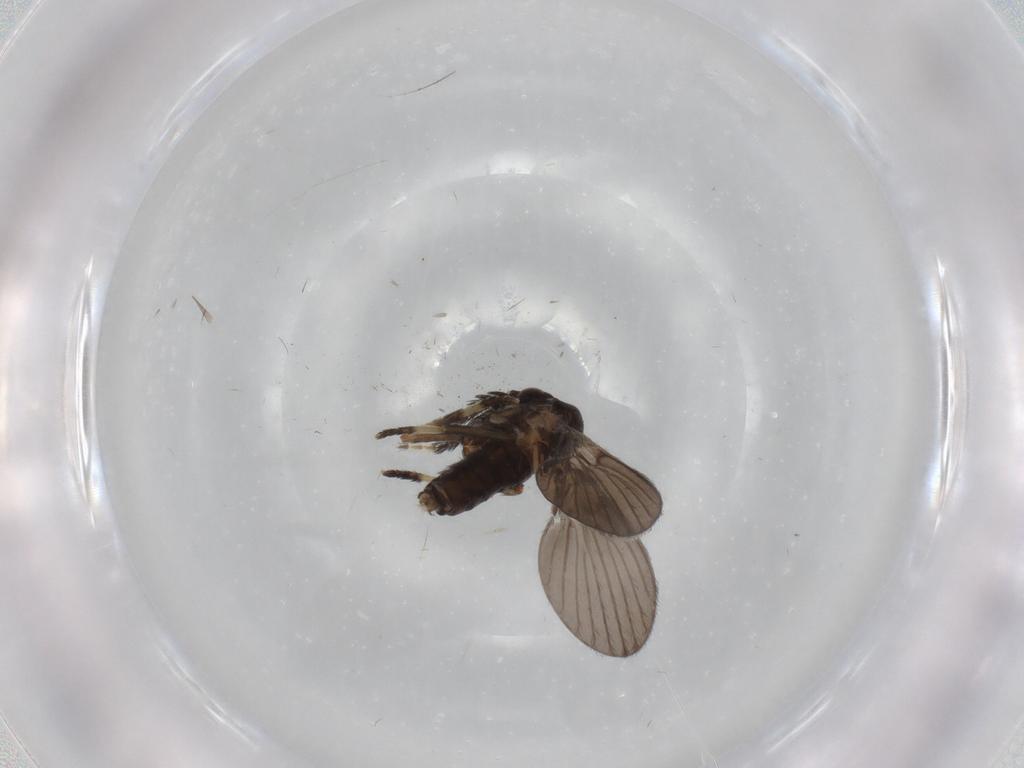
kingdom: Animalia
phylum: Arthropoda
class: Insecta
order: Diptera
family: Psychodidae
